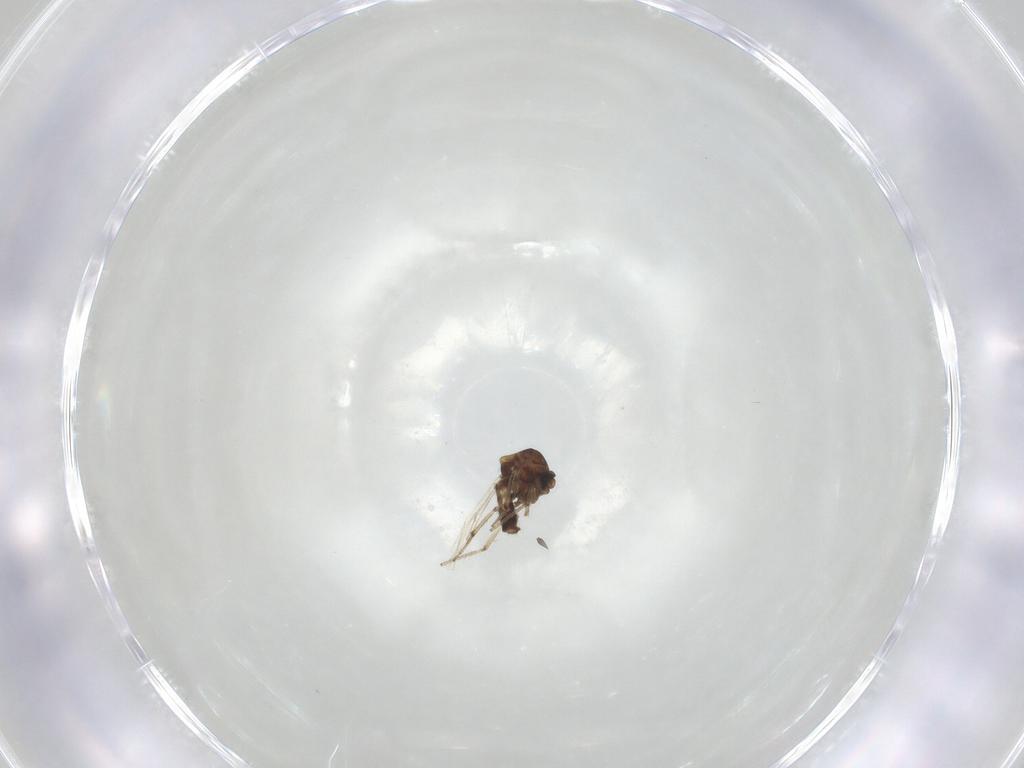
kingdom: Animalia
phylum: Arthropoda
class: Insecta
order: Diptera
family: Ceratopogonidae
